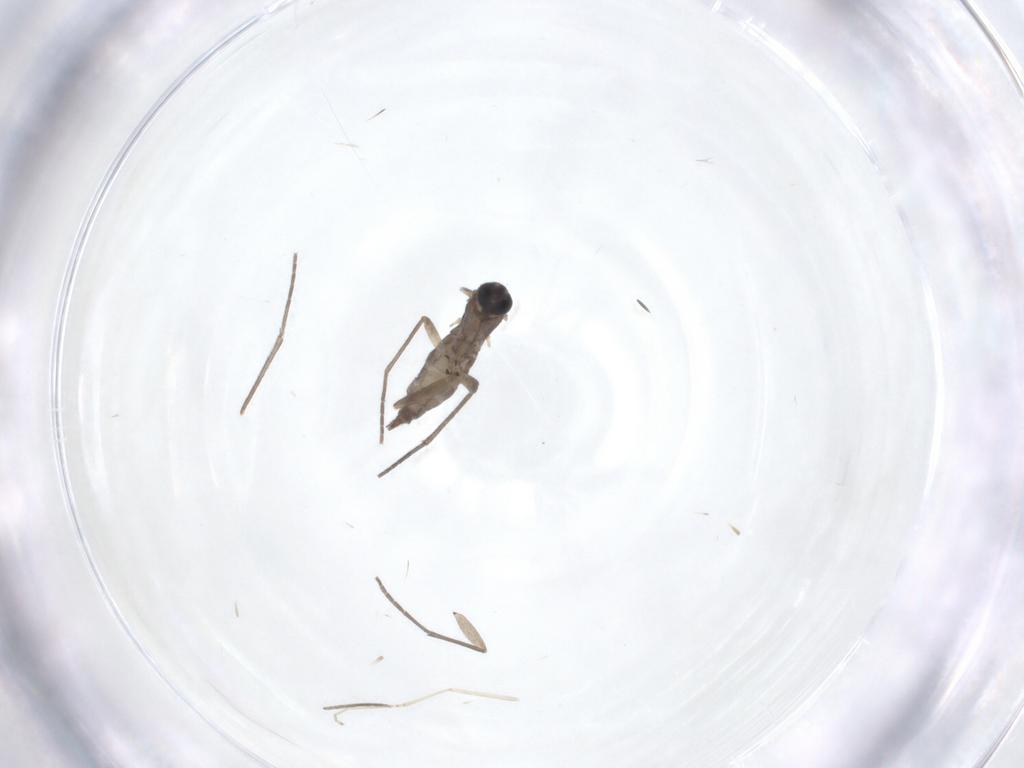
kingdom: Animalia
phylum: Arthropoda
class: Insecta
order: Diptera
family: Sciaridae
